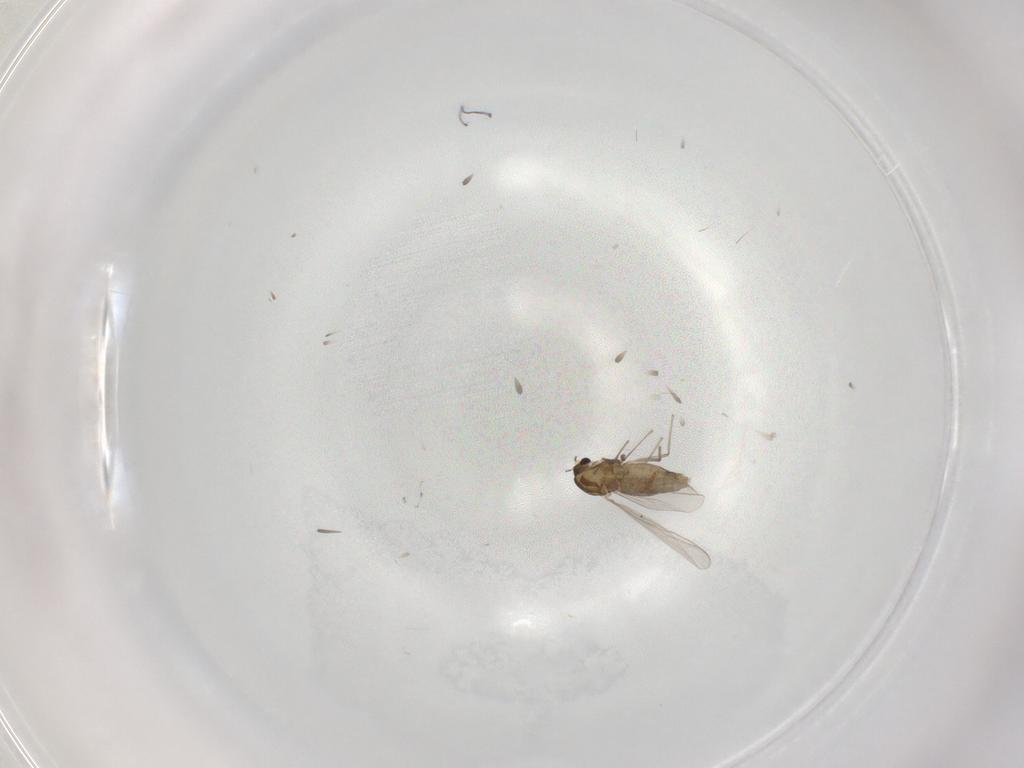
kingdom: Animalia
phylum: Arthropoda
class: Insecta
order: Diptera
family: Chironomidae
